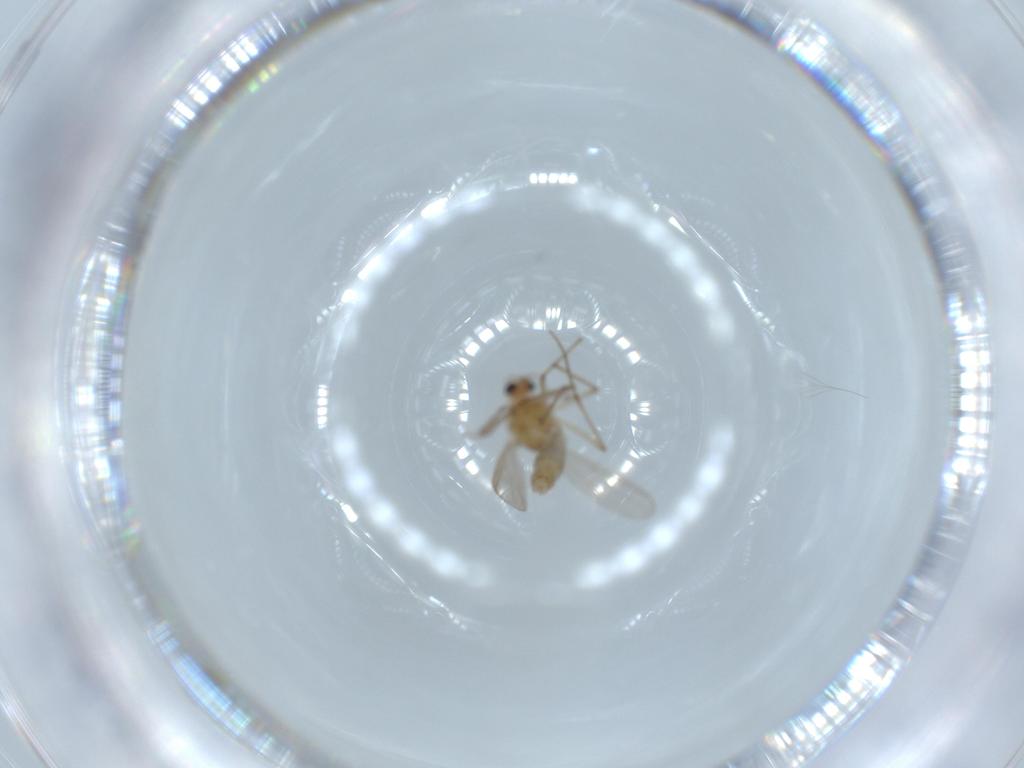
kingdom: Animalia
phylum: Arthropoda
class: Insecta
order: Diptera
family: Chironomidae
